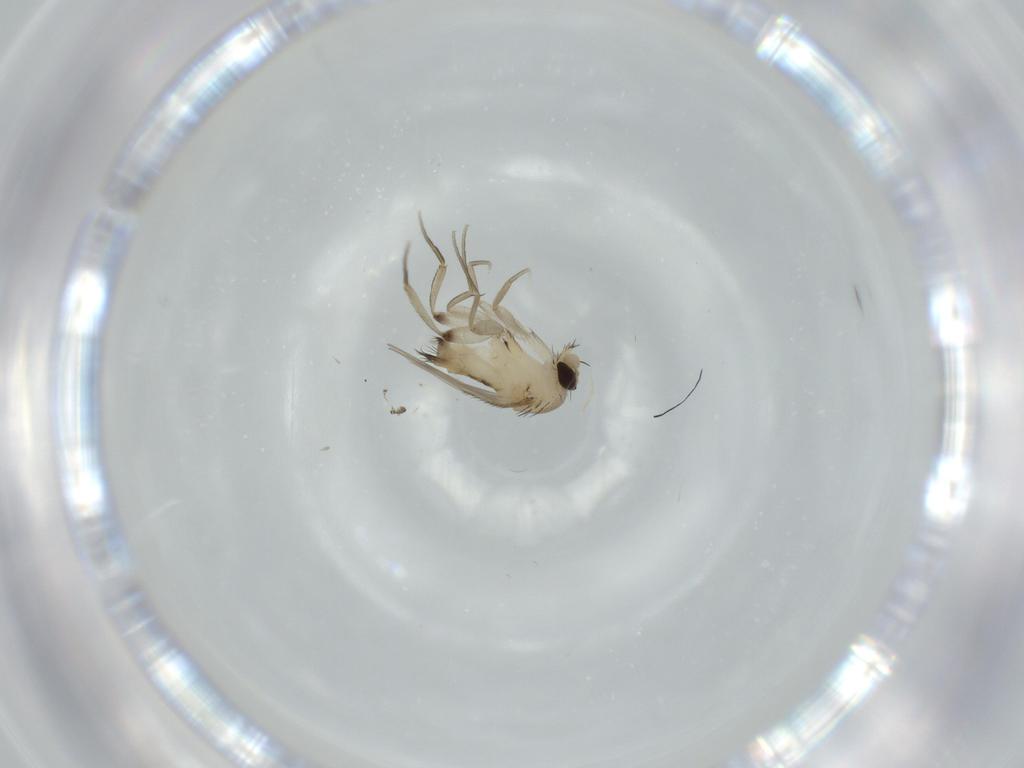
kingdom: Animalia
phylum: Arthropoda
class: Insecta
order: Diptera
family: Phoridae
